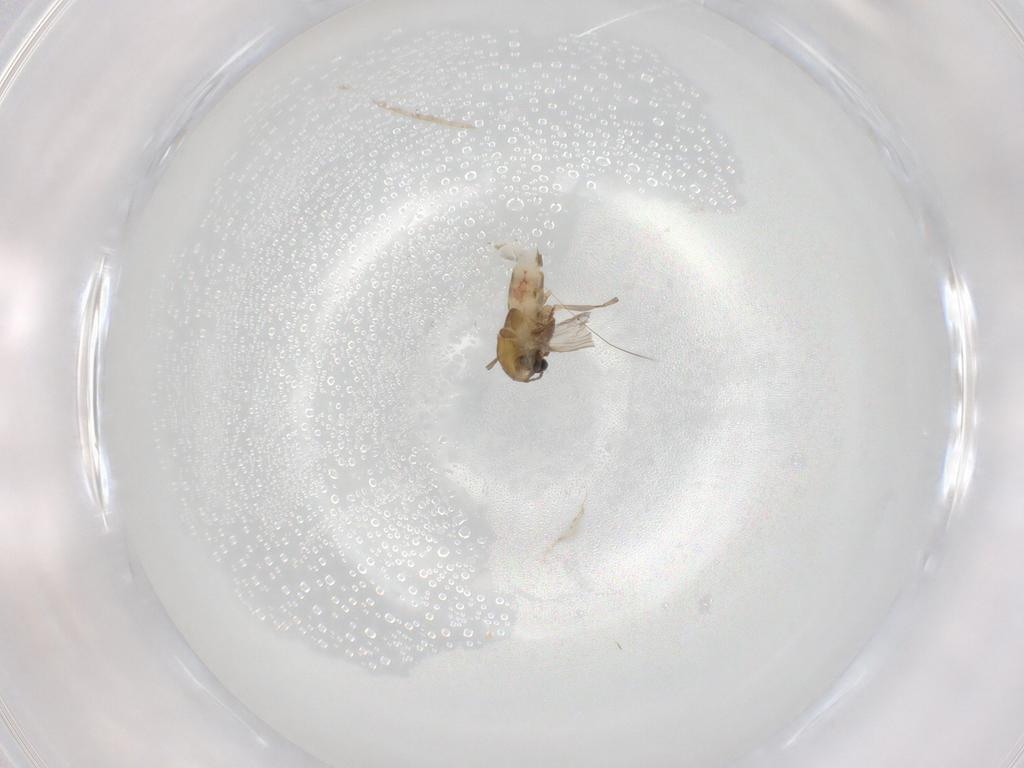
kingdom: Animalia
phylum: Arthropoda
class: Insecta
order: Diptera
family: Chironomidae
